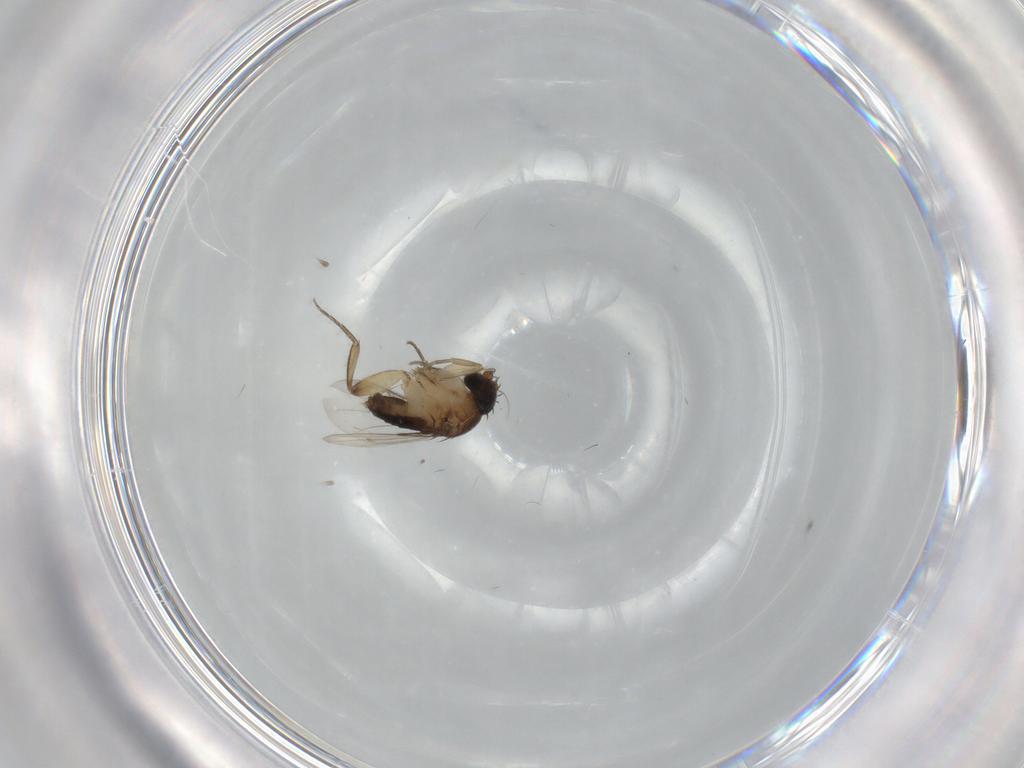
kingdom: Animalia
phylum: Arthropoda
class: Insecta
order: Diptera
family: Phoridae
